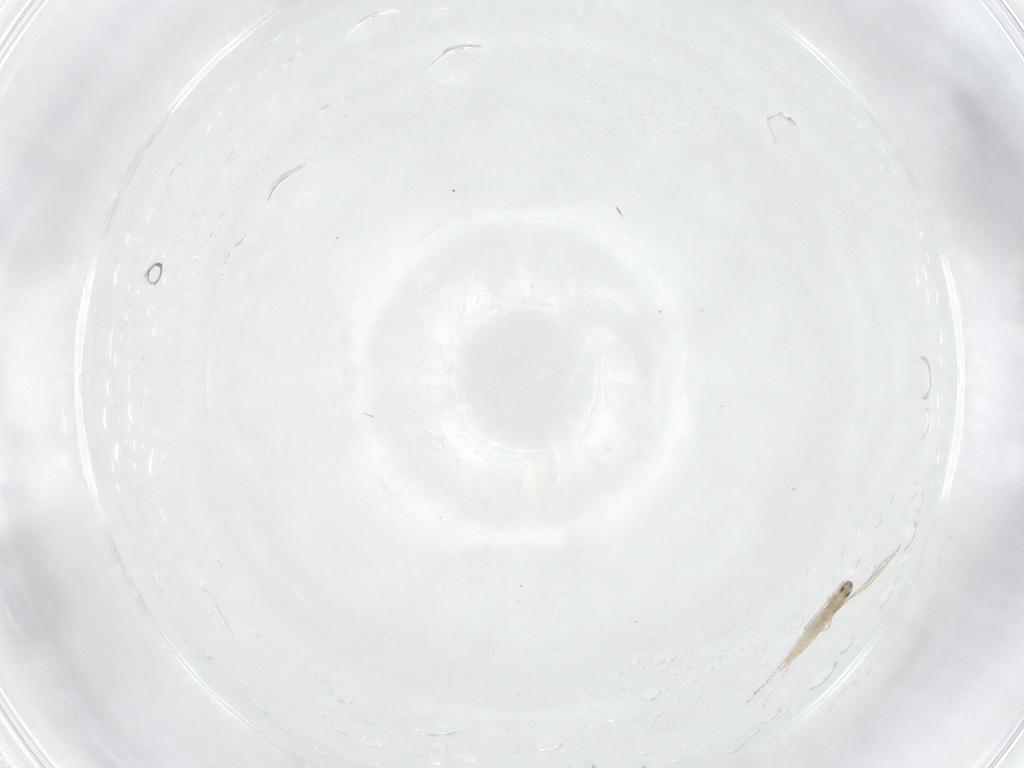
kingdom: Animalia
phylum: Arthropoda
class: Insecta
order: Diptera
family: Cecidomyiidae
